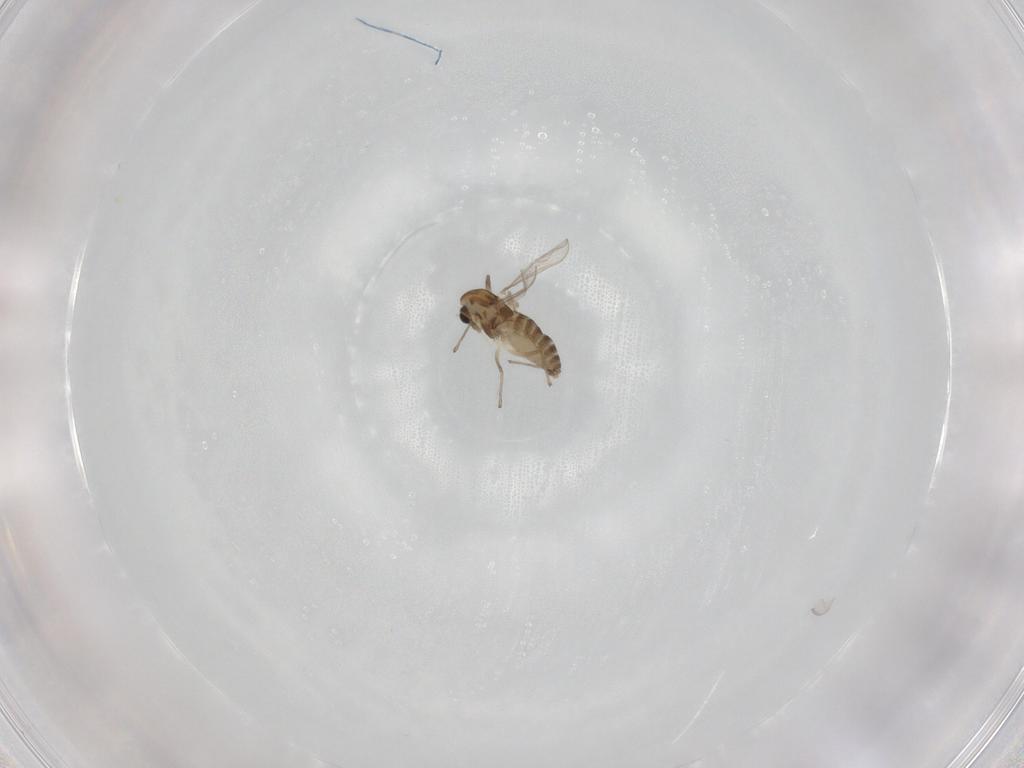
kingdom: Animalia
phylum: Arthropoda
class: Insecta
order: Diptera
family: Chironomidae
